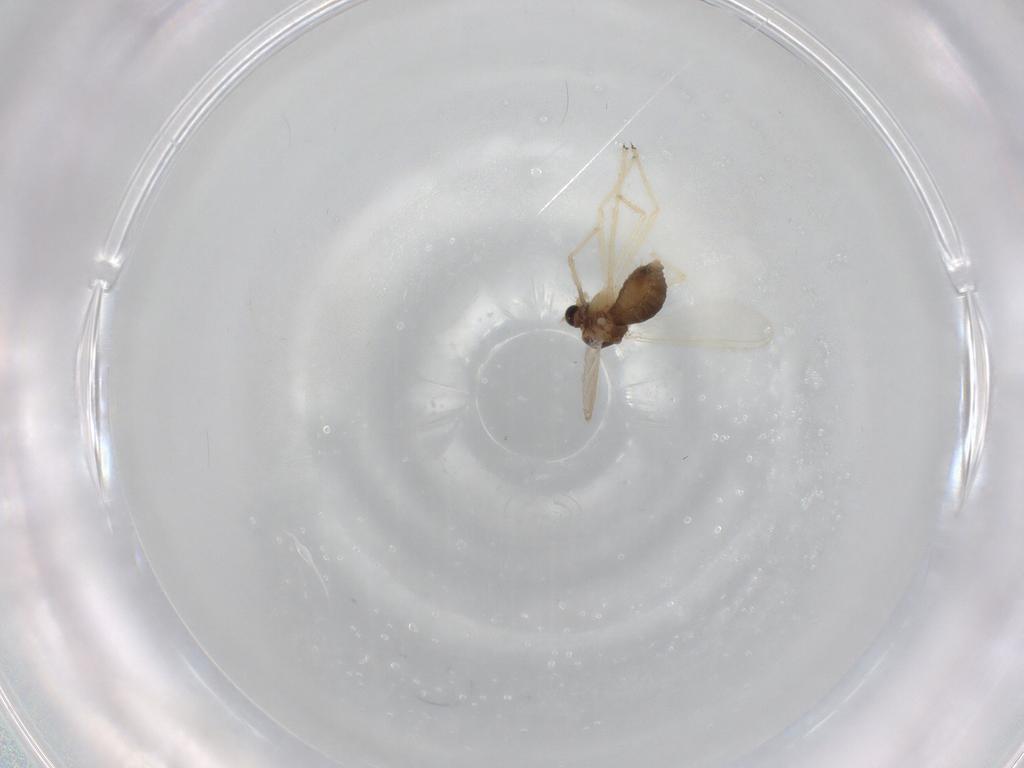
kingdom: Animalia
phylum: Arthropoda
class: Insecta
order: Diptera
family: Chironomidae
